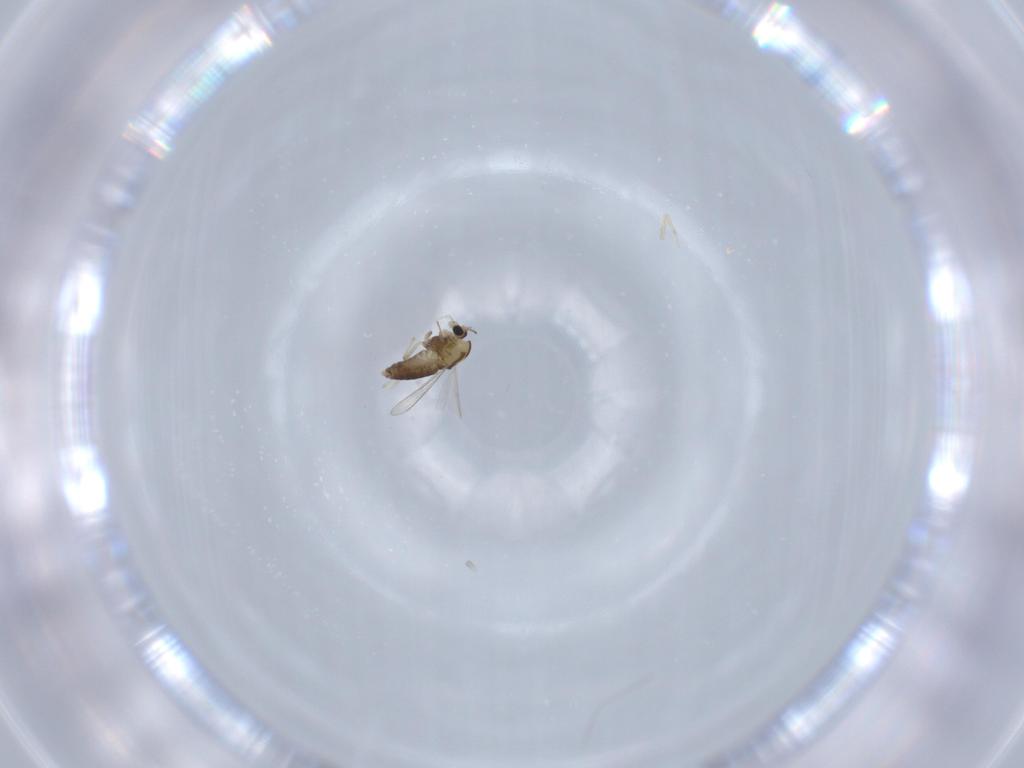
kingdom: Animalia
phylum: Arthropoda
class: Insecta
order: Diptera
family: Chironomidae
